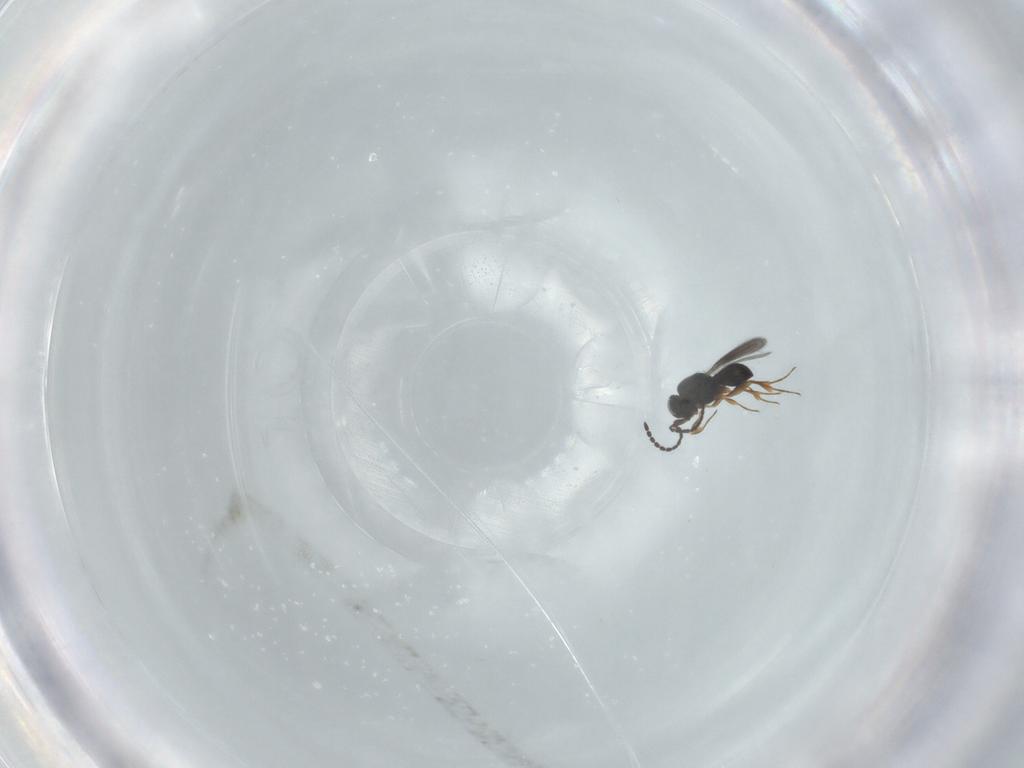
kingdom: Animalia
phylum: Arthropoda
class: Insecta
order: Hymenoptera
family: Scelionidae
